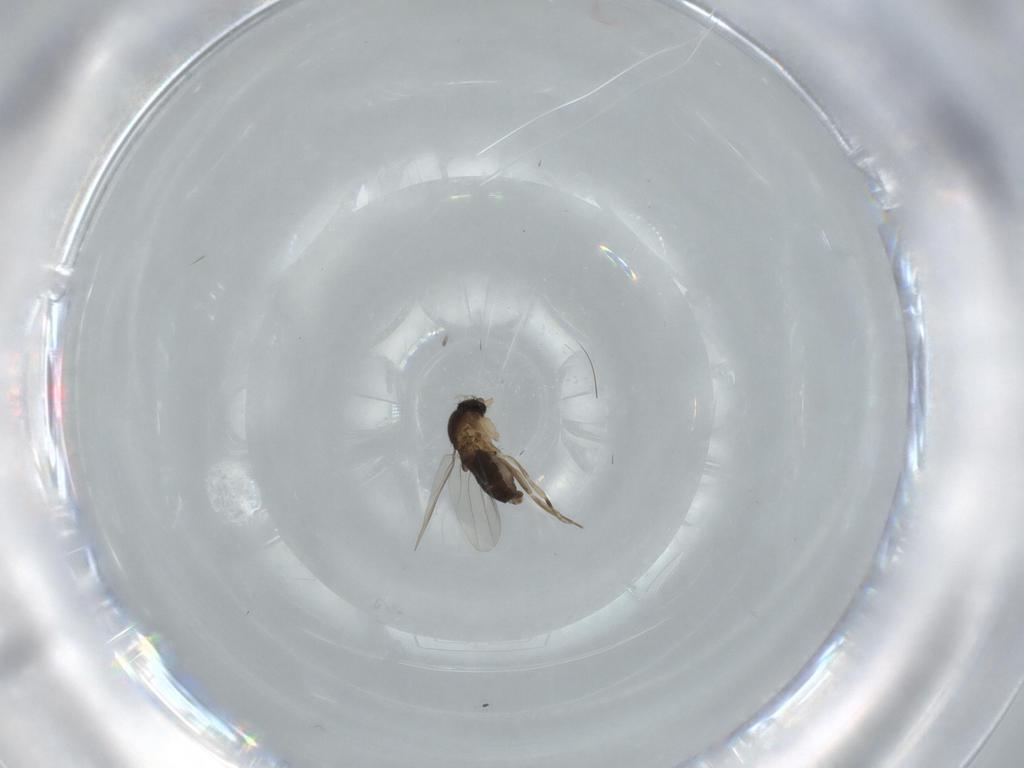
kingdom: Animalia
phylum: Arthropoda
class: Insecta
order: Diptera
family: Phoridae
